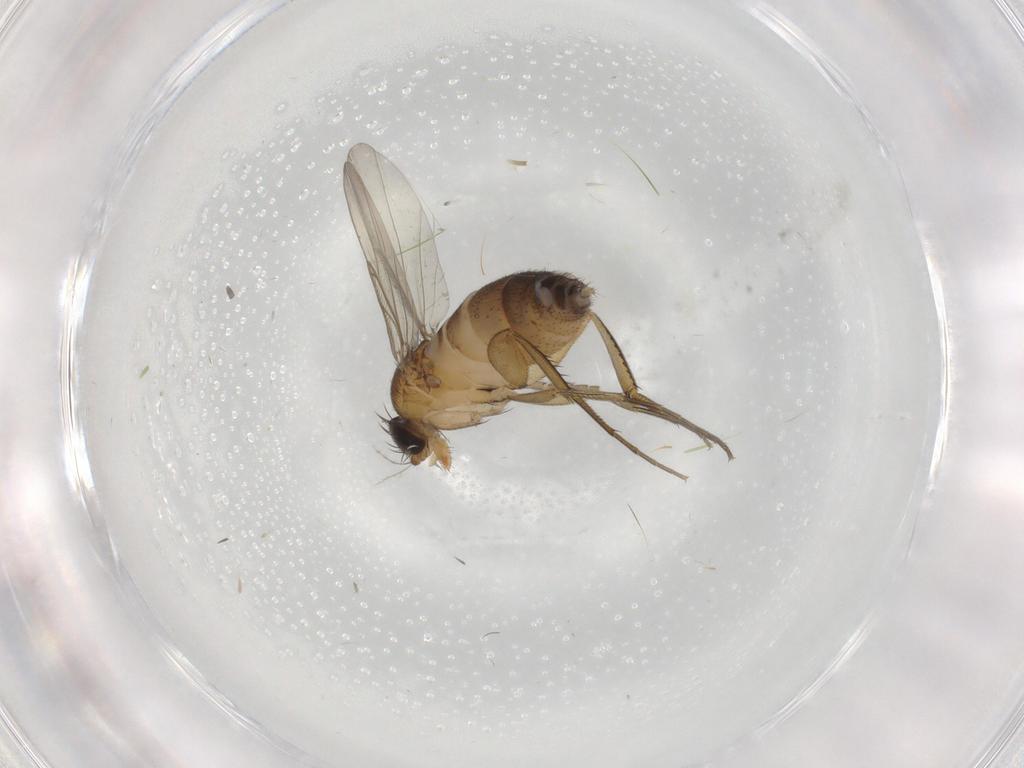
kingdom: Animalia
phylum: Arthropoda
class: Insecta
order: Diptera
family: Phoridae
